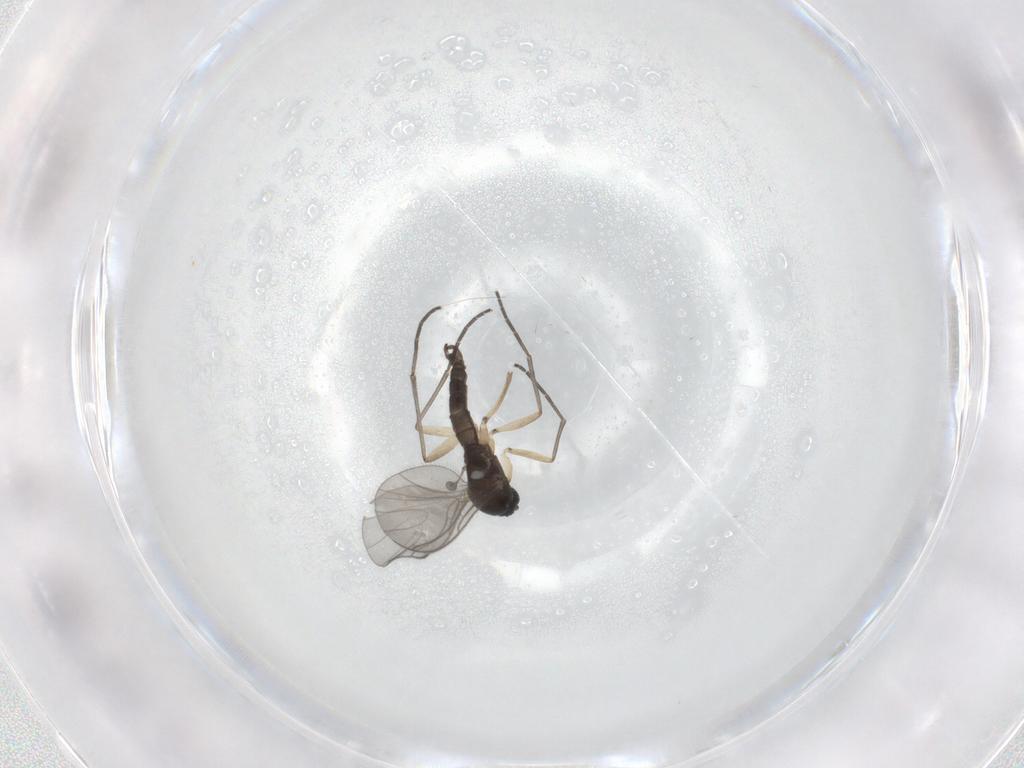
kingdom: Animalia
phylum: Arthropoda
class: Insecta
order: Diptera
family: Sciaridae
